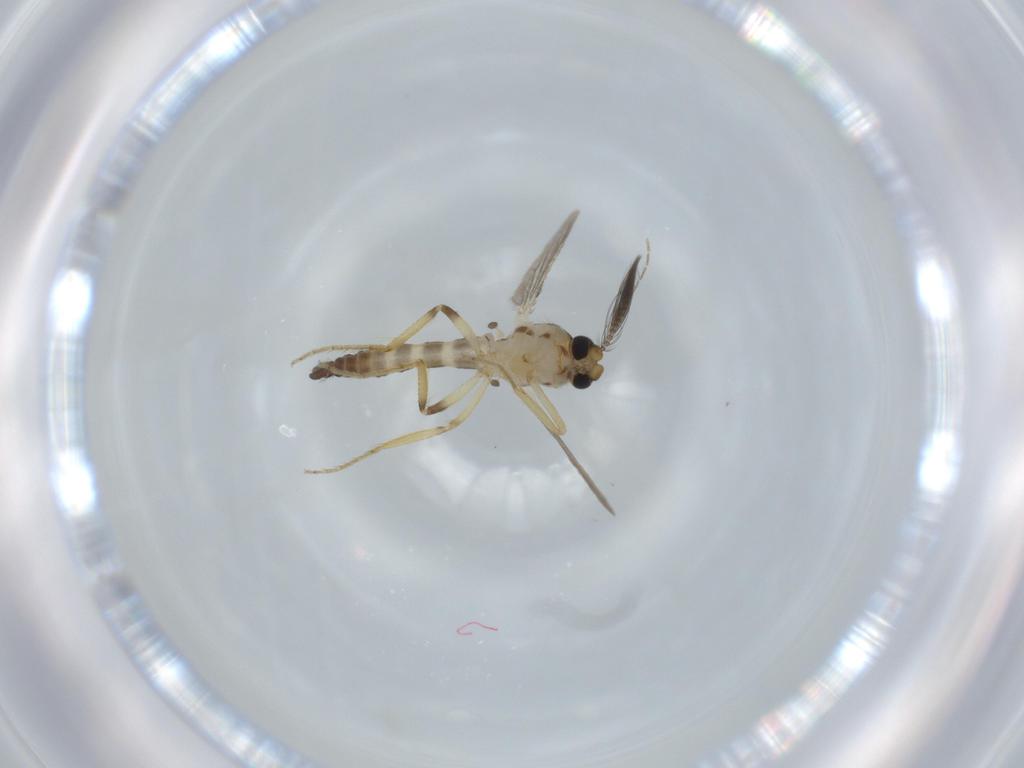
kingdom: Animalia
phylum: Arthropoda
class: Insecta
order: Diptera
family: Ceratopogonidae
